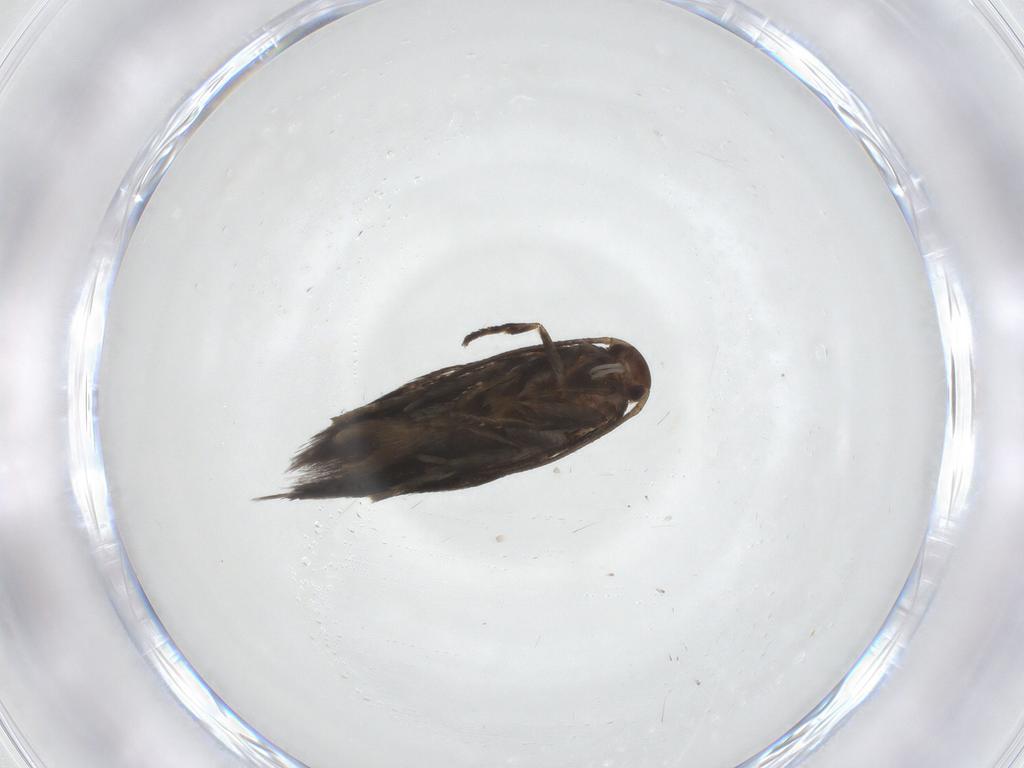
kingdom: Animalia
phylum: Arthropoda
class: Insecta
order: Lepidoptera
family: Elachistidae
